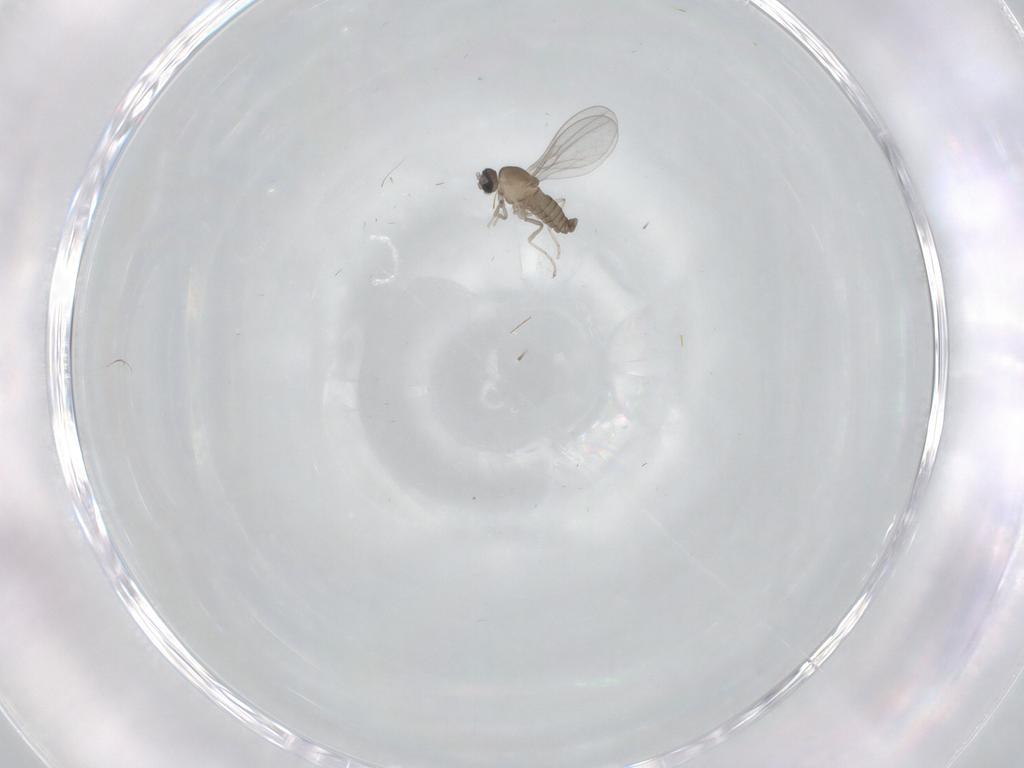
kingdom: Animalia
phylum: Arthropoda
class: Insecta
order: Diptera
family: Cecidomyiidae
